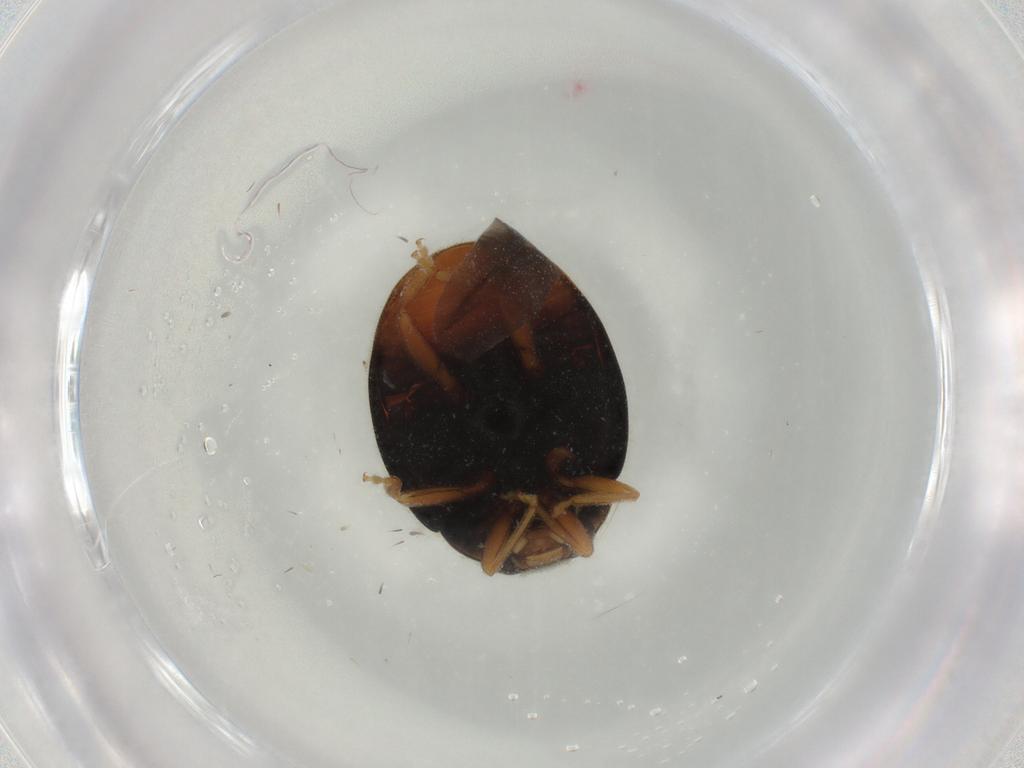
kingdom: Animalia
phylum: Arthropoda
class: Insecta
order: Coleoptera
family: Coccinellidae
